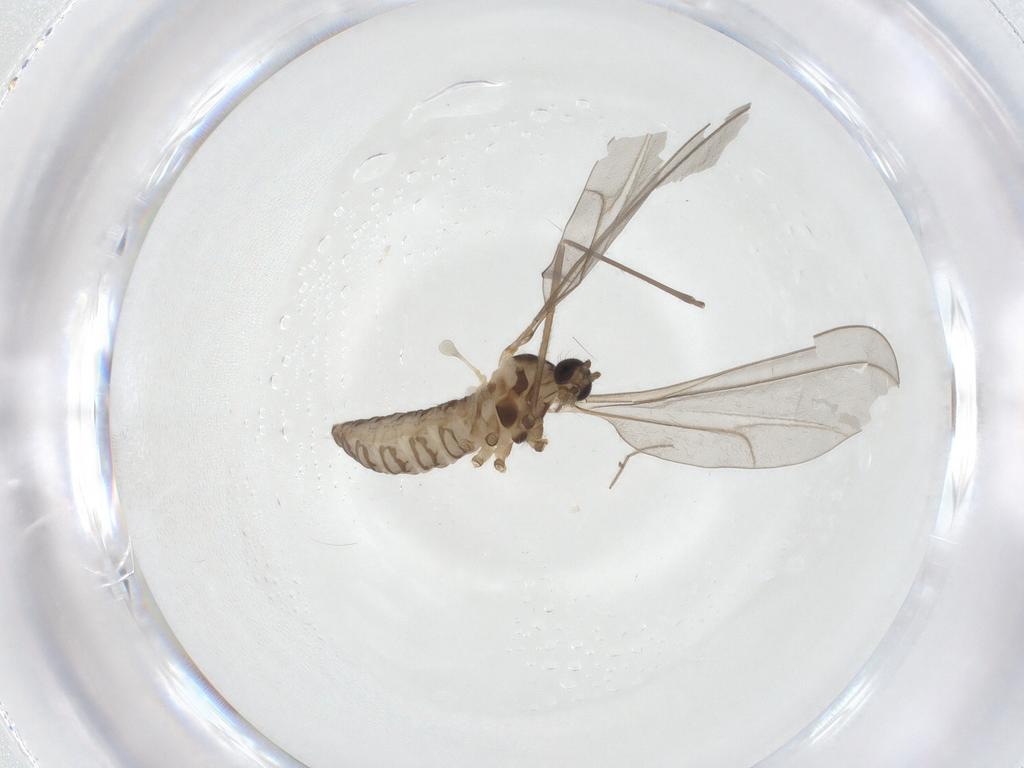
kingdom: Animalia
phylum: Arthropoda
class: Insecta
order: Diptera
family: Chironomidae
